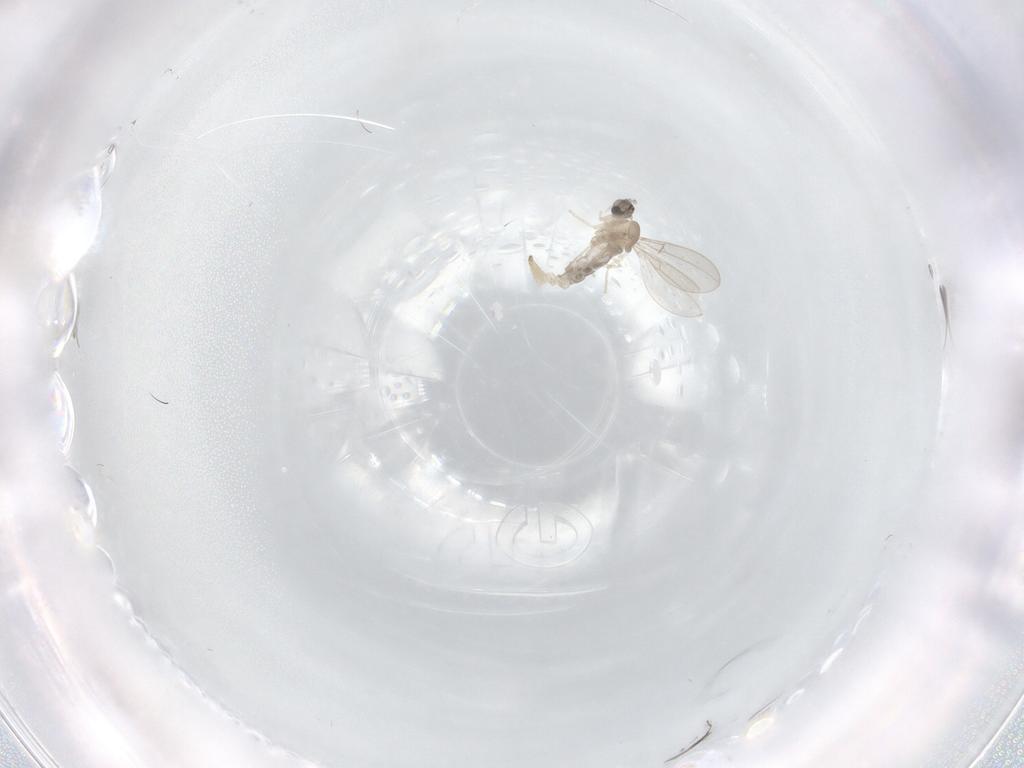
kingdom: Animalia
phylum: Arthropoda
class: Insecta
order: Diptera
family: Cecidomyiidae
